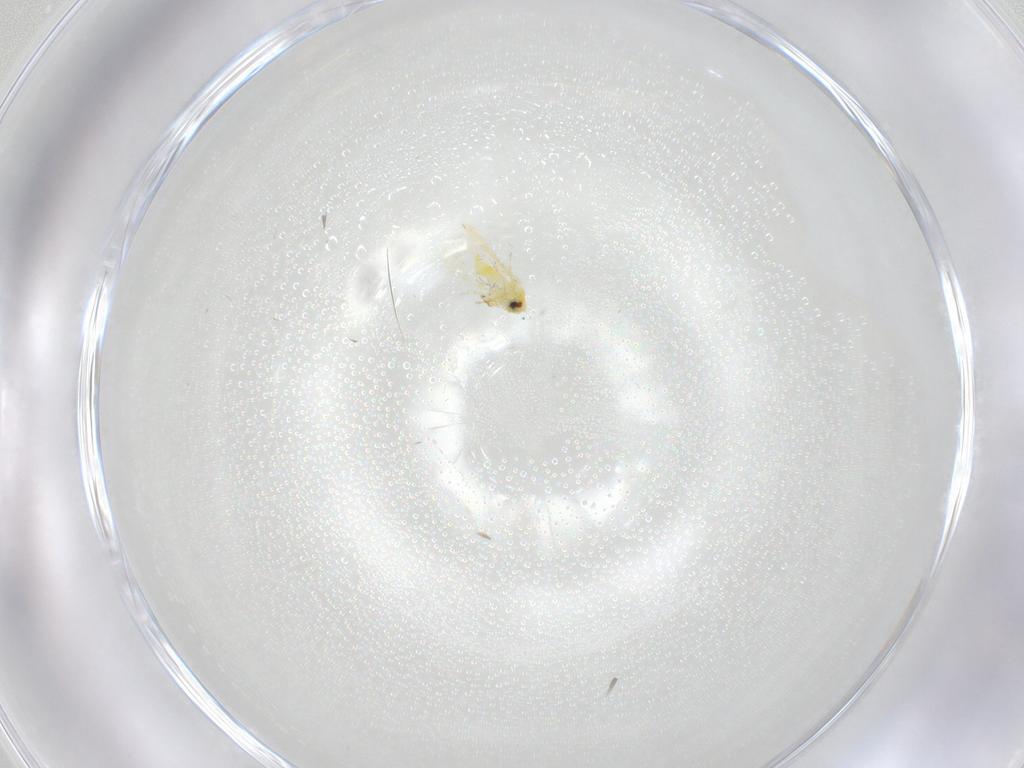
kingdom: Animalia
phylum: Arthropoda
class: Insecta
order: Hemiptera
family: Aleyrodidae
